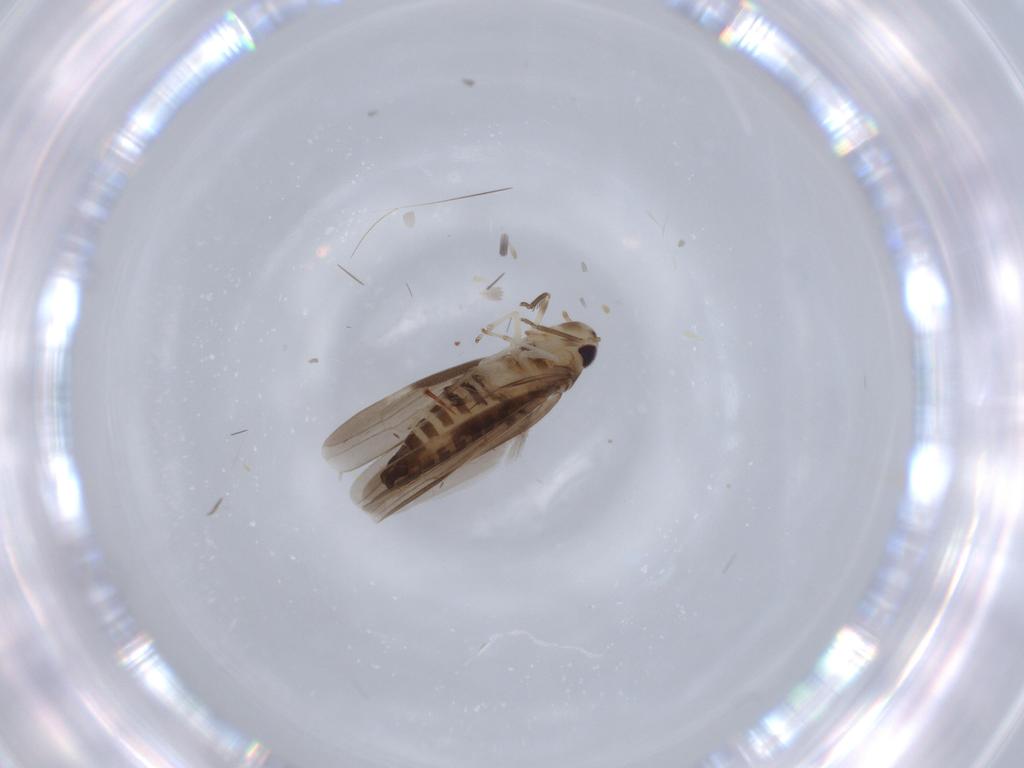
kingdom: Animalia
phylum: Arthropoda
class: Insecta
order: Hemiptera
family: Cicadellidae
